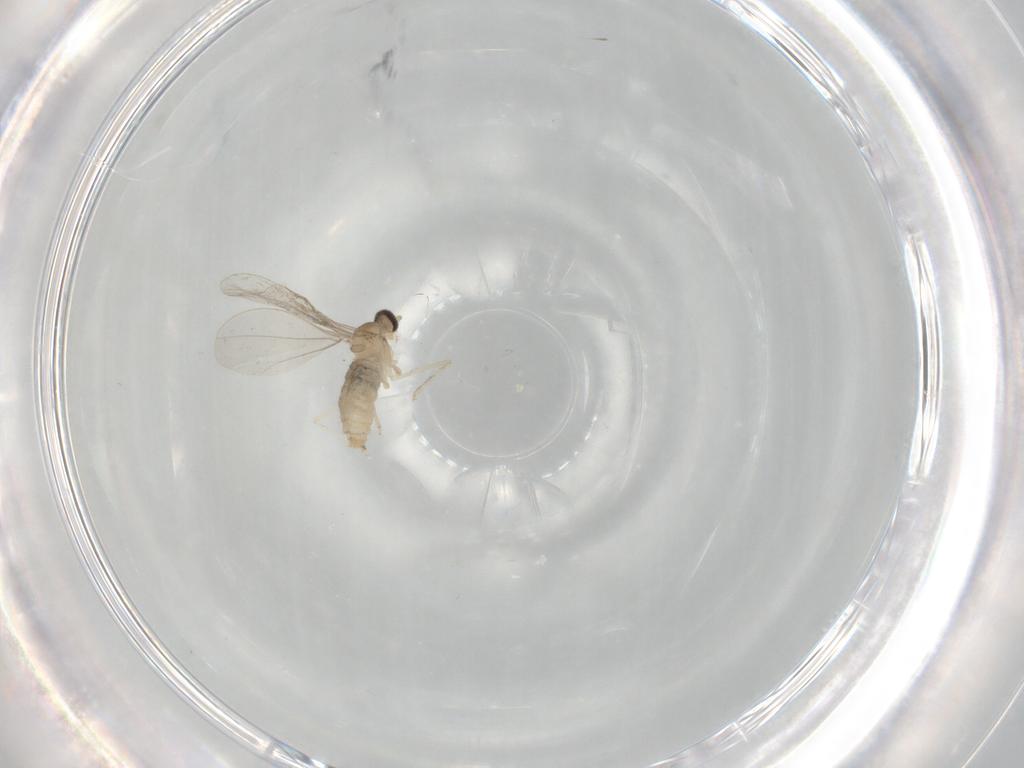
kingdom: Animalia
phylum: Arthropoda
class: Insecta
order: Diptera
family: Cecidomyiidae
